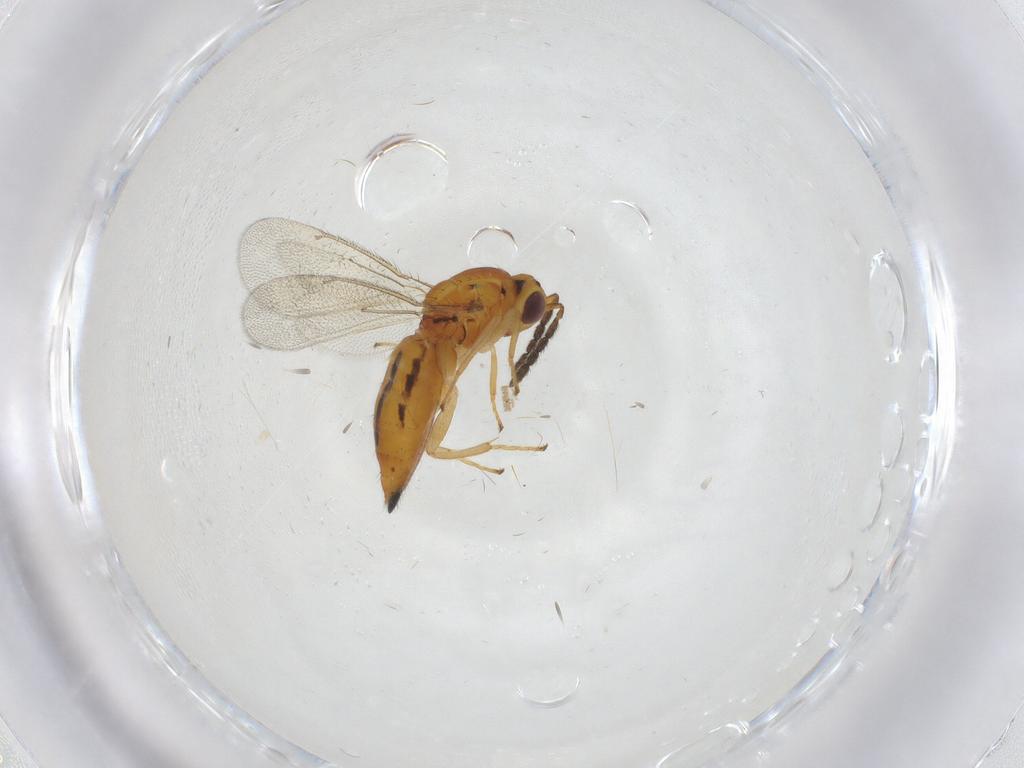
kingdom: Animalia
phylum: Arthropoda
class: Insecta
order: Hymenoptera
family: Eulophidae
